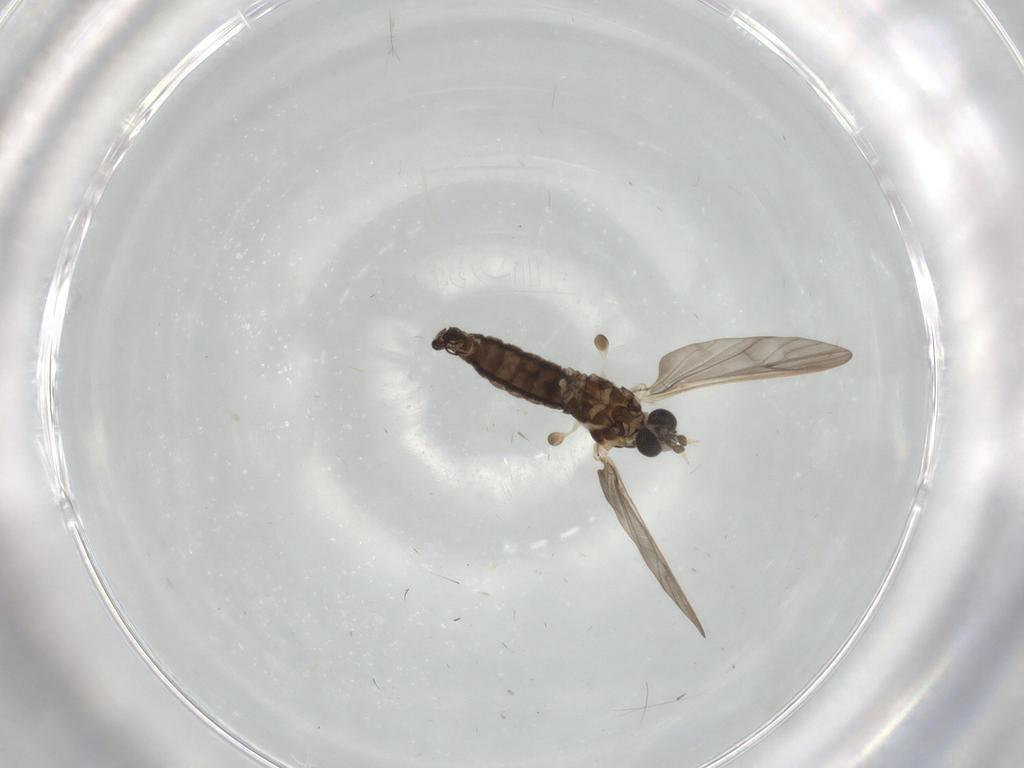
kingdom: Animalia
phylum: Arthropoda
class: Insecta
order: Diptera
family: Limoniidae
